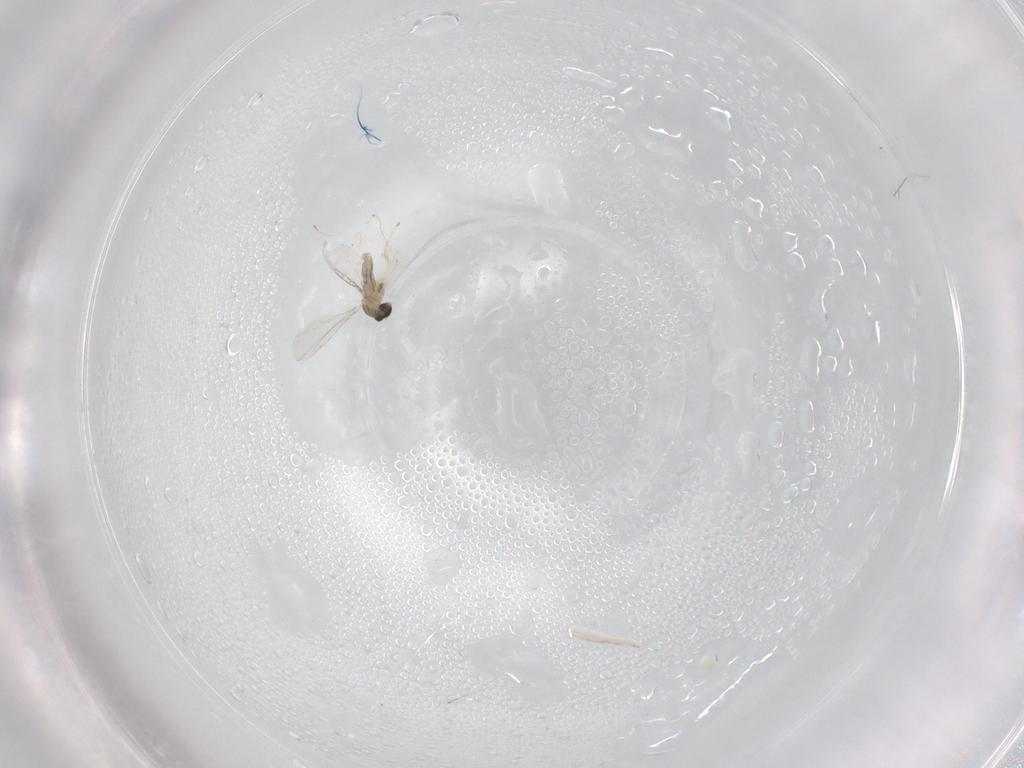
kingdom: Animalia
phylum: Arthropoda
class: Insecta
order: Diptera
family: Cecidomyiidae
